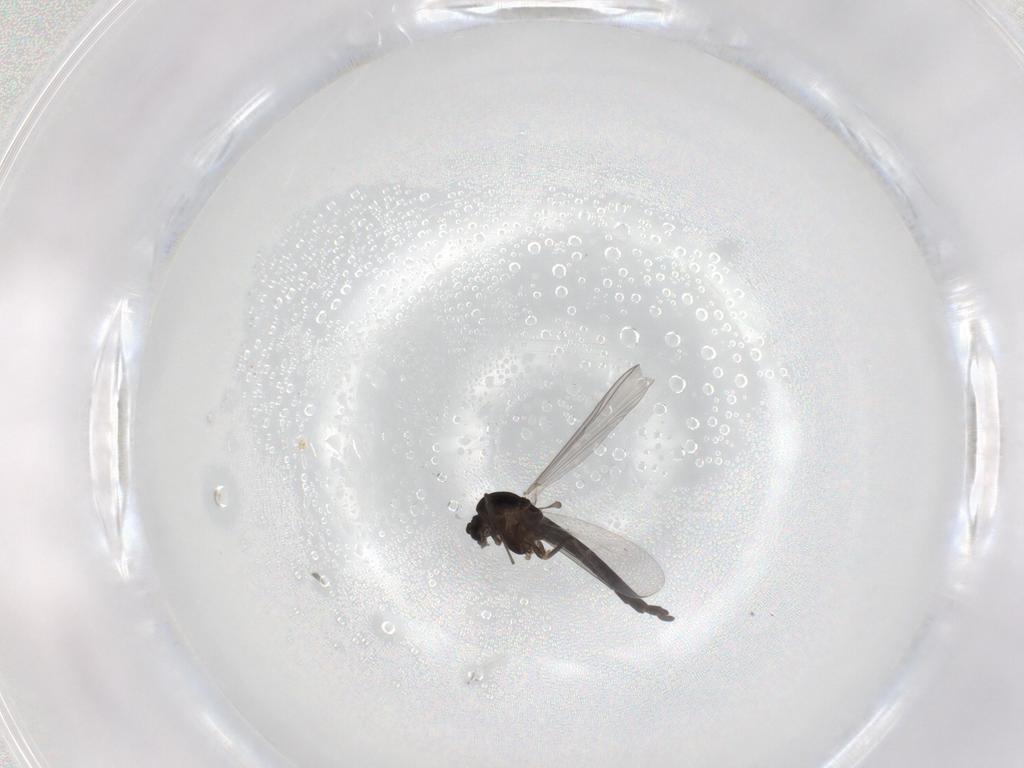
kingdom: Animalia
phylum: Arthropoda
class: Insecta
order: Diptera
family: Chironomidae
